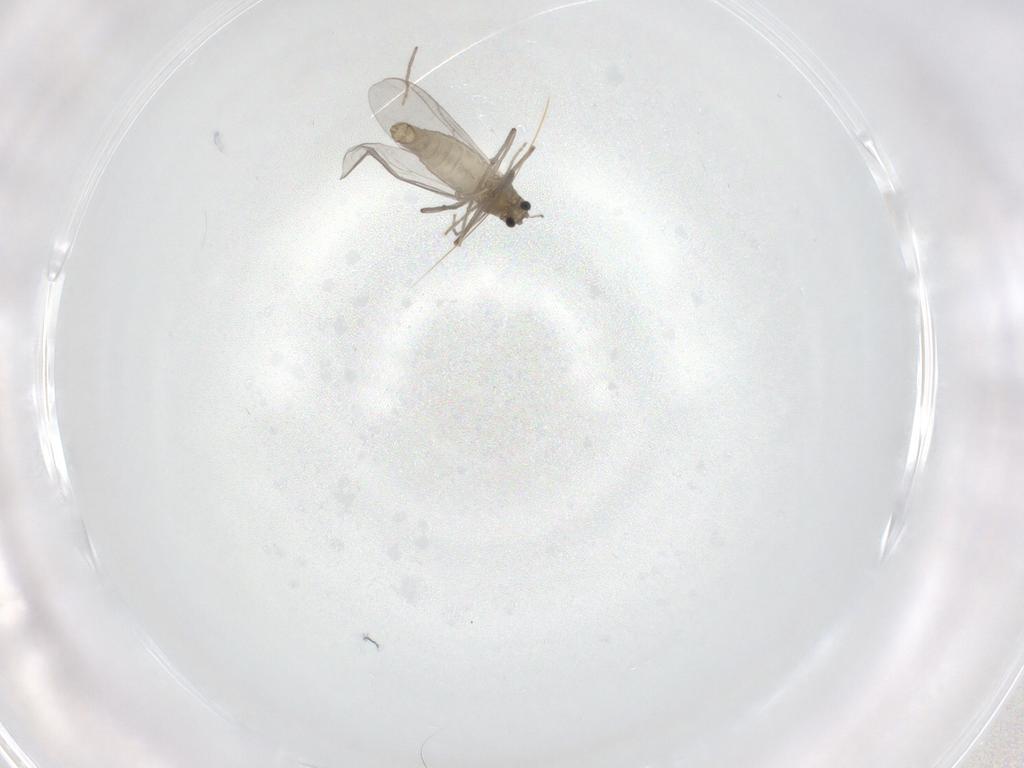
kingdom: Animalia
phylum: Arthropoda
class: Insecta
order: Diptera
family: Chironomidae
